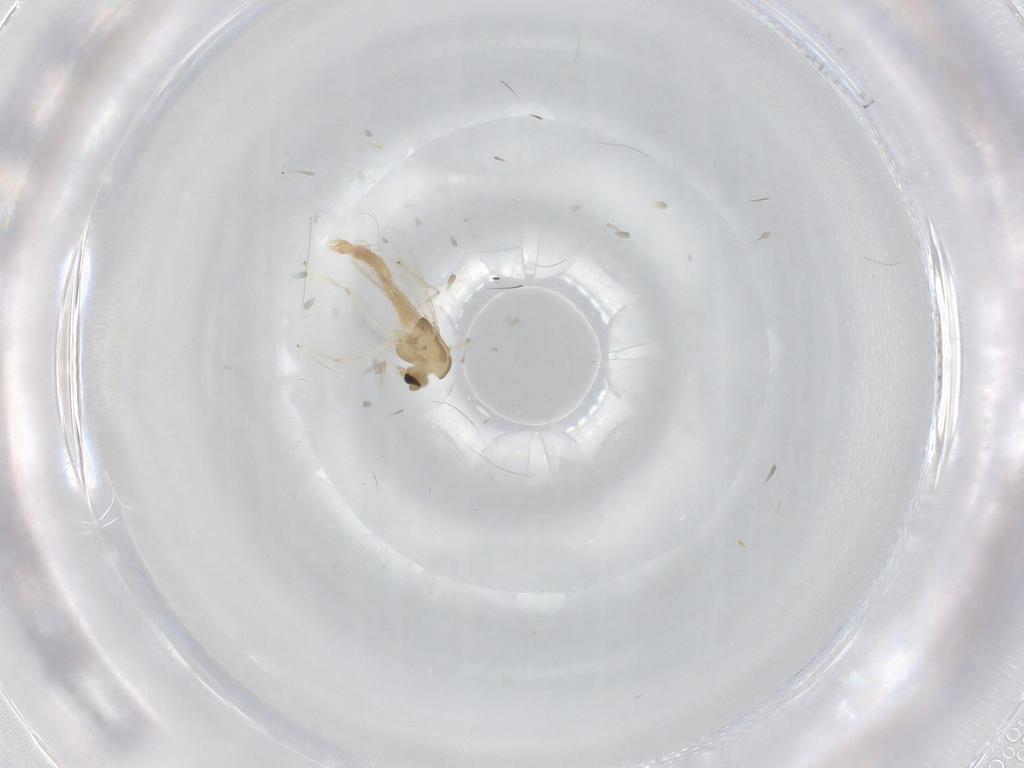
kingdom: Animalia
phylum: Arthropoda
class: Insecta
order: Diptera
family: Chironomidae
